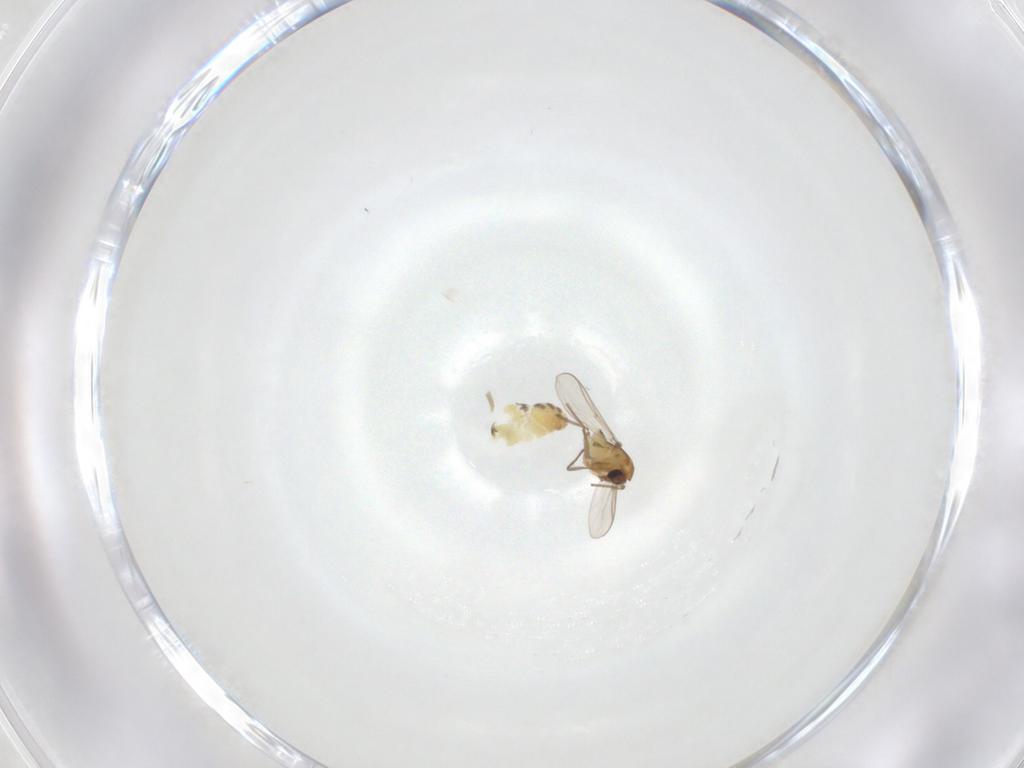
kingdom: Animalia
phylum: Arthropoda
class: Insecta
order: Diptera
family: Chironomidae
